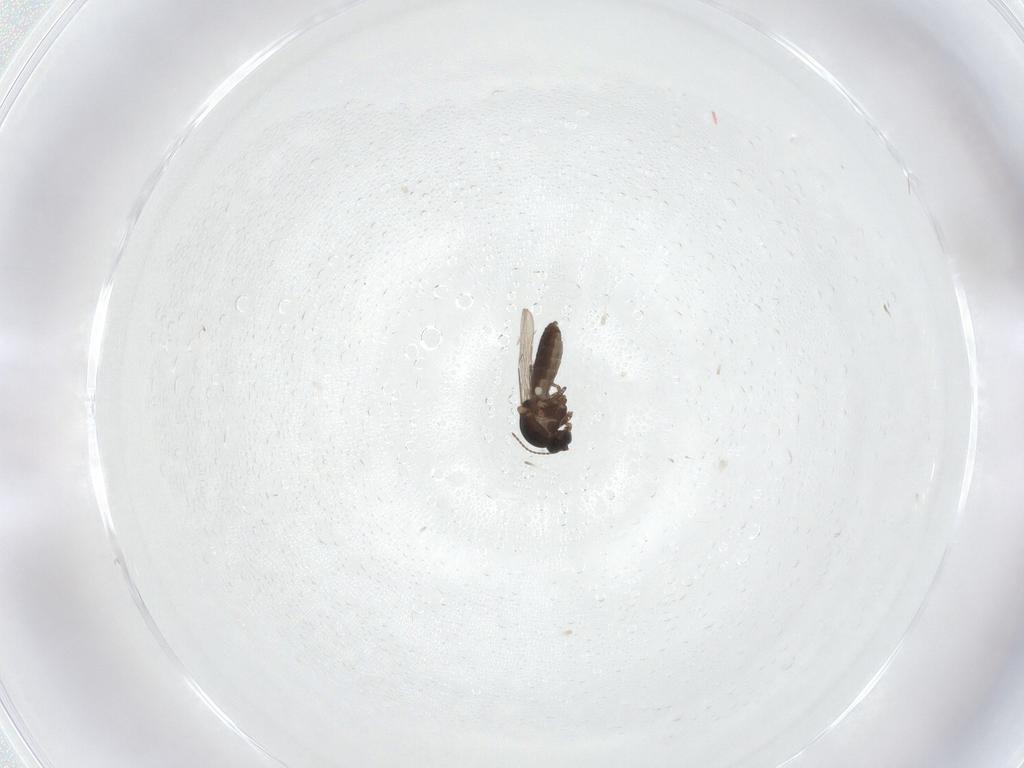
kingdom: Animalia
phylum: Arthropoda
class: Insecta
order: Diptera
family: Ceratopogonidae
